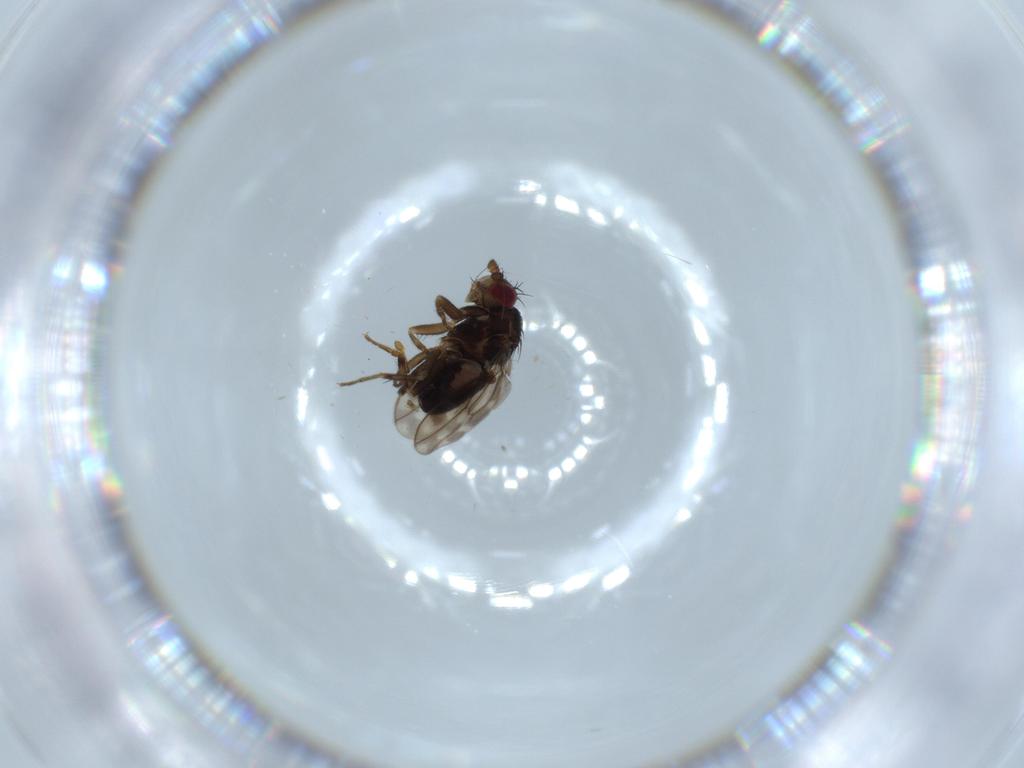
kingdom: Animalia
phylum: Arthropoda
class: Insecta
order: Diptera
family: Sphaeroceridae
